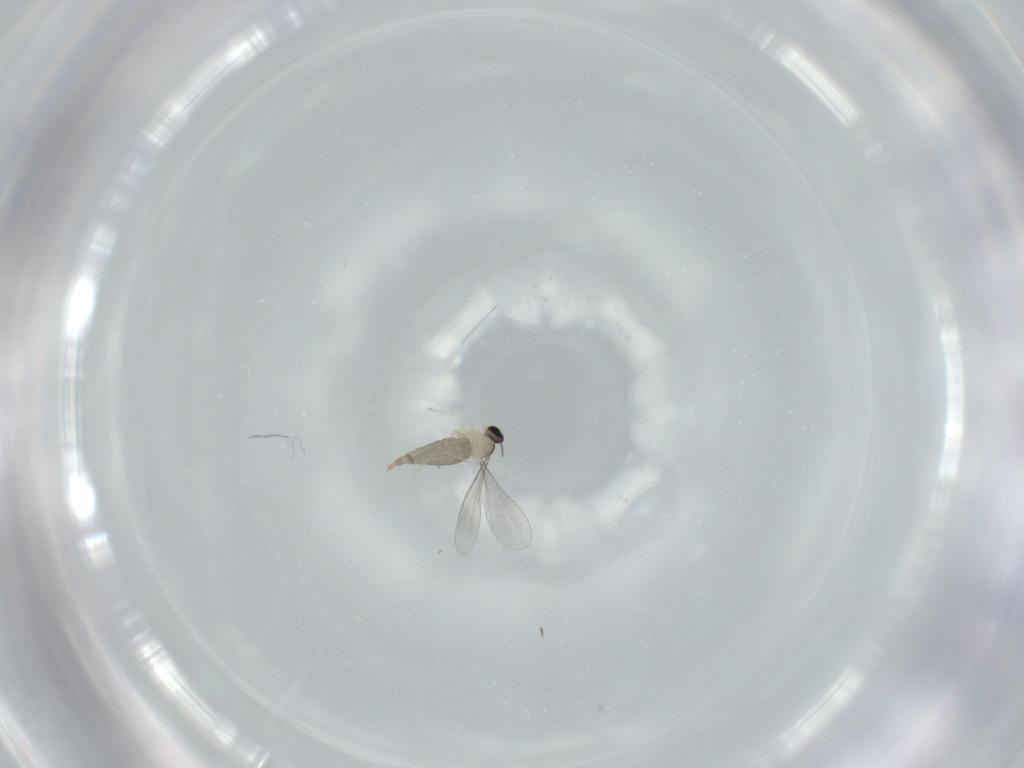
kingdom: Animalia
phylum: Arthropoda
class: Insecta
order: Diptera
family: Cecidomyiidae
